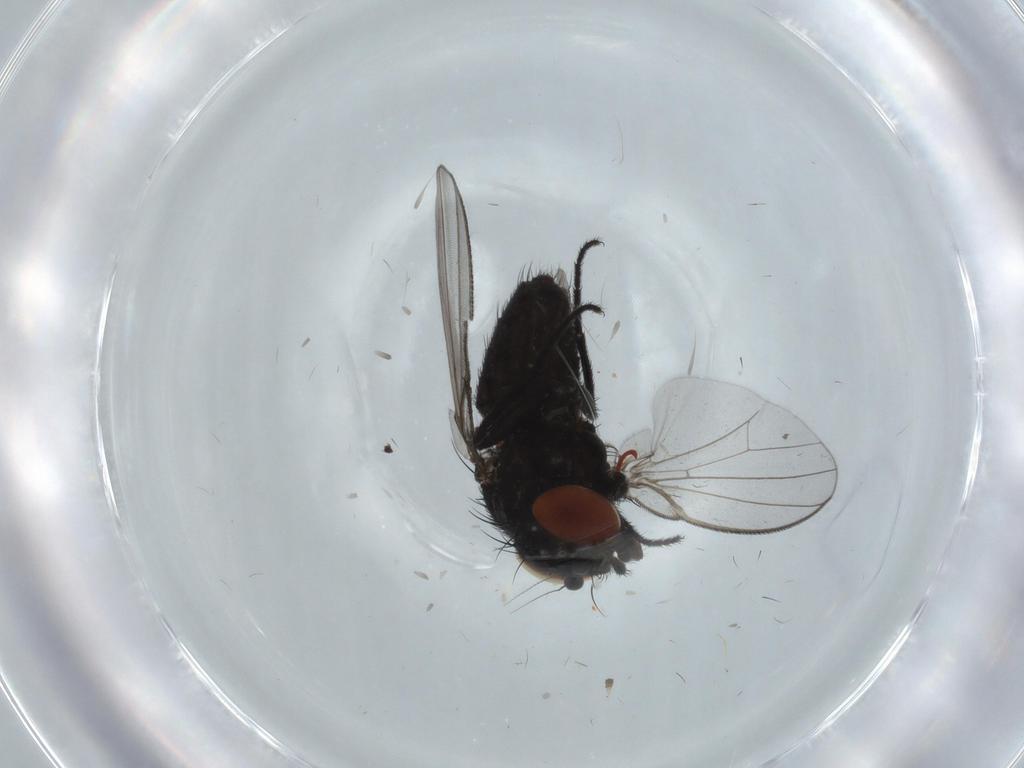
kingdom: Animalia
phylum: Arthropoda
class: Insecta
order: Diptera
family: Milichiidae
